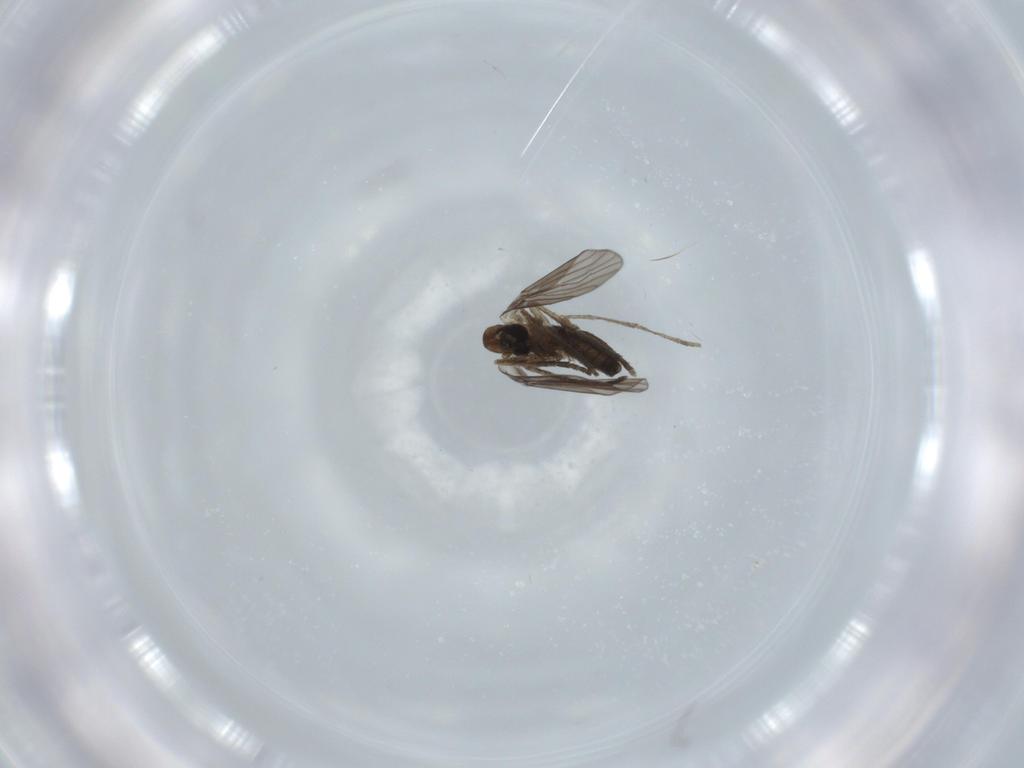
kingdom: Animalia
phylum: Arthropoda
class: Insecta
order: Diptera
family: Psychodidae
